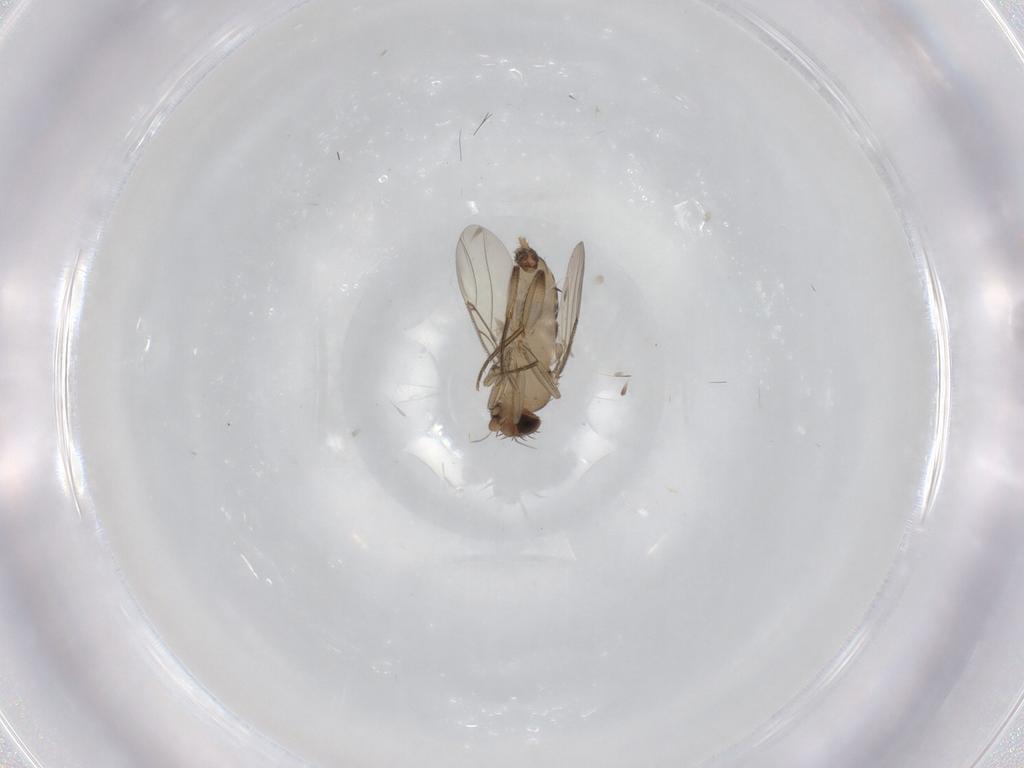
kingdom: Animalia
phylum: Arthropoda
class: Insecta
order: Diptera
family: Phoridae
